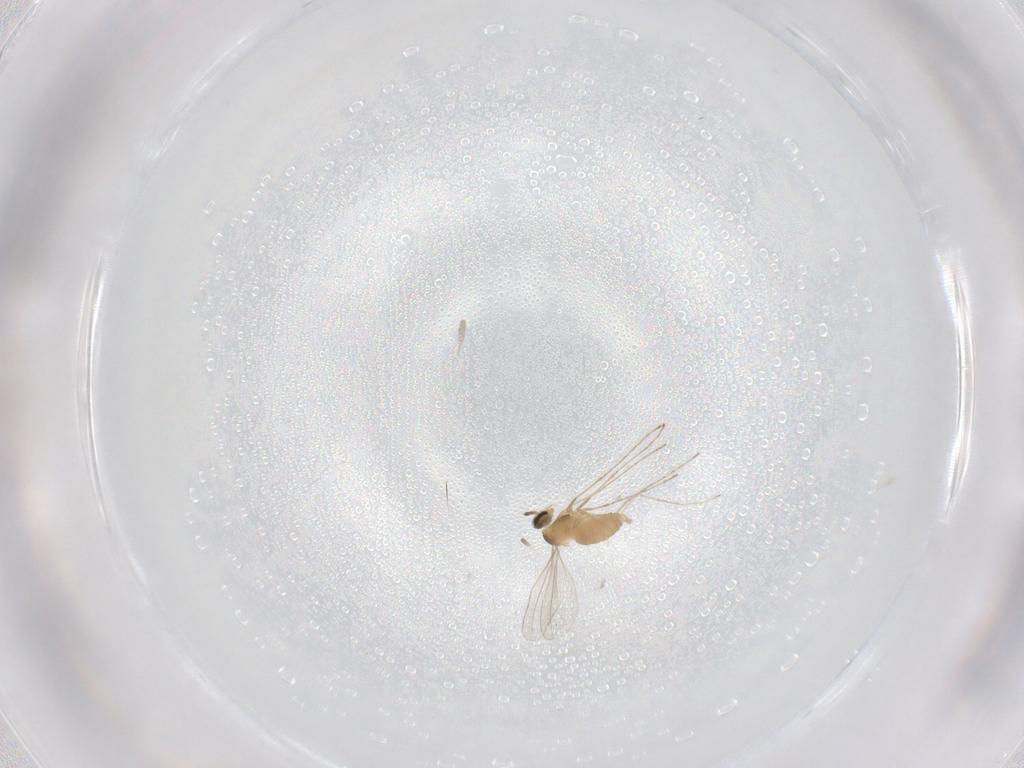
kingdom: Animalia
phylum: Arthropoda
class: Insecta
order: Diptera
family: Cecidomyiidae
